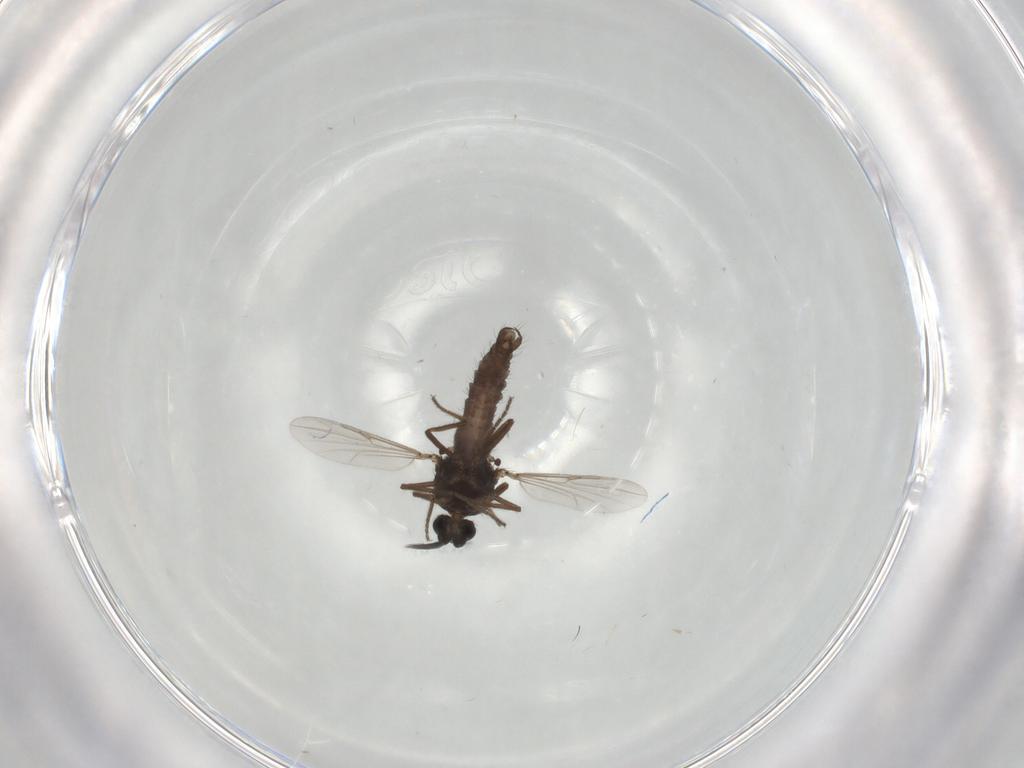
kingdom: Animalia
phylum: Arthropoda
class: Insecta
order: Diptera
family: Ceratopogonidae
